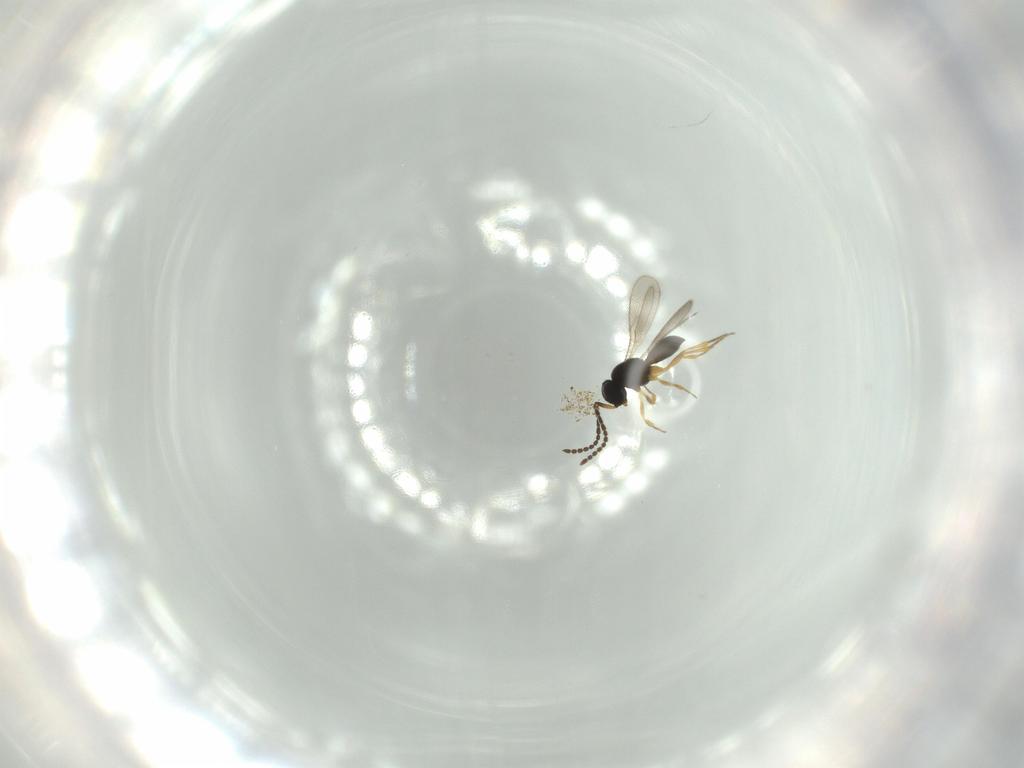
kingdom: Animalia
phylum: Arthropoda
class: Insecta
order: Hymenoptera
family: Scelionidae
